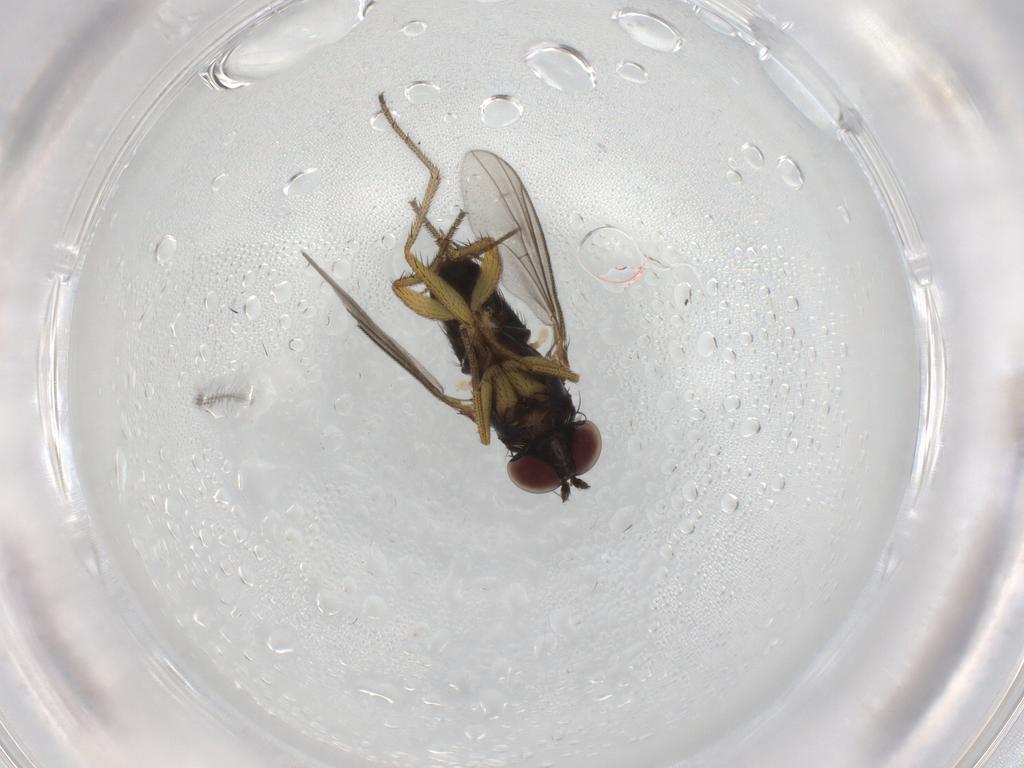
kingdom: Animalia
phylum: Arthropoda
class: Insecta
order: Diptera
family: Chironomidae
